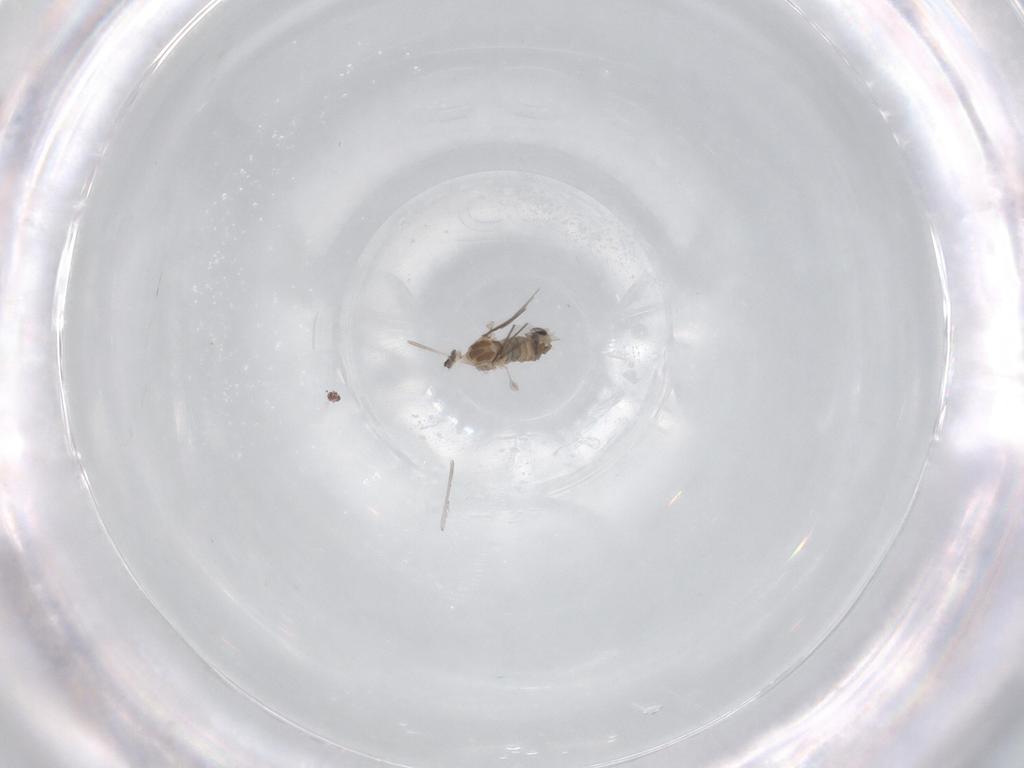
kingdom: Animalia
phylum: Arthropoda
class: Insecta
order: Diptera
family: Cecidomyiidae
